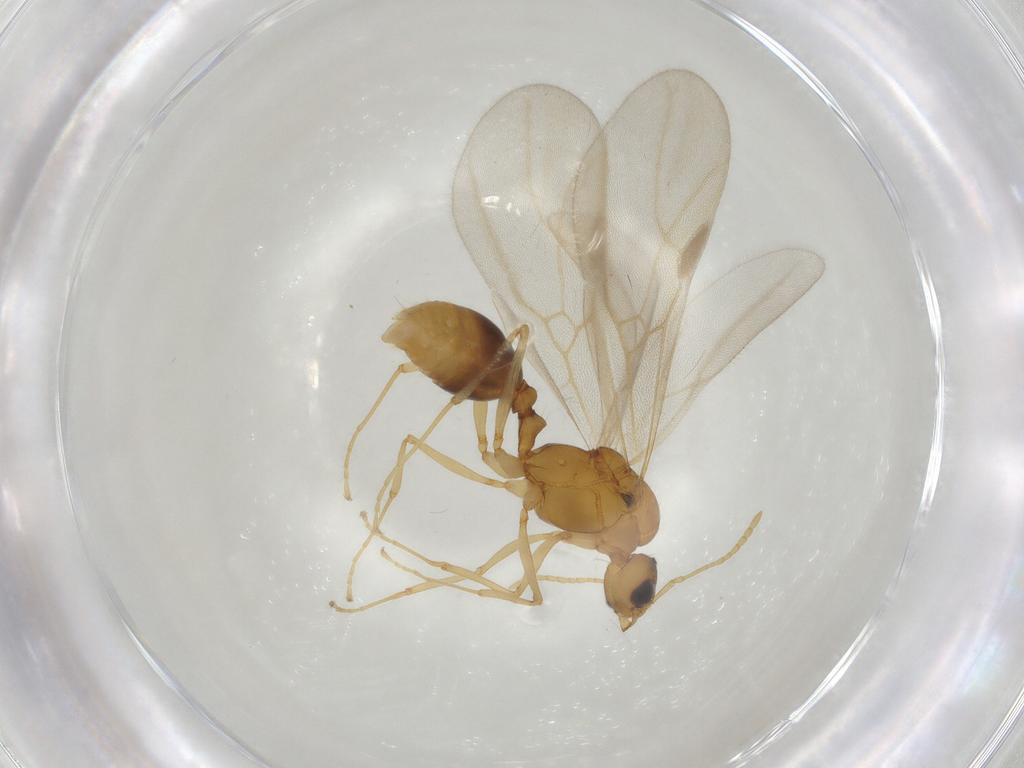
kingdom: Animalia
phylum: Arthropoda
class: Insecta
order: Hymenoptera
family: Formicidae
